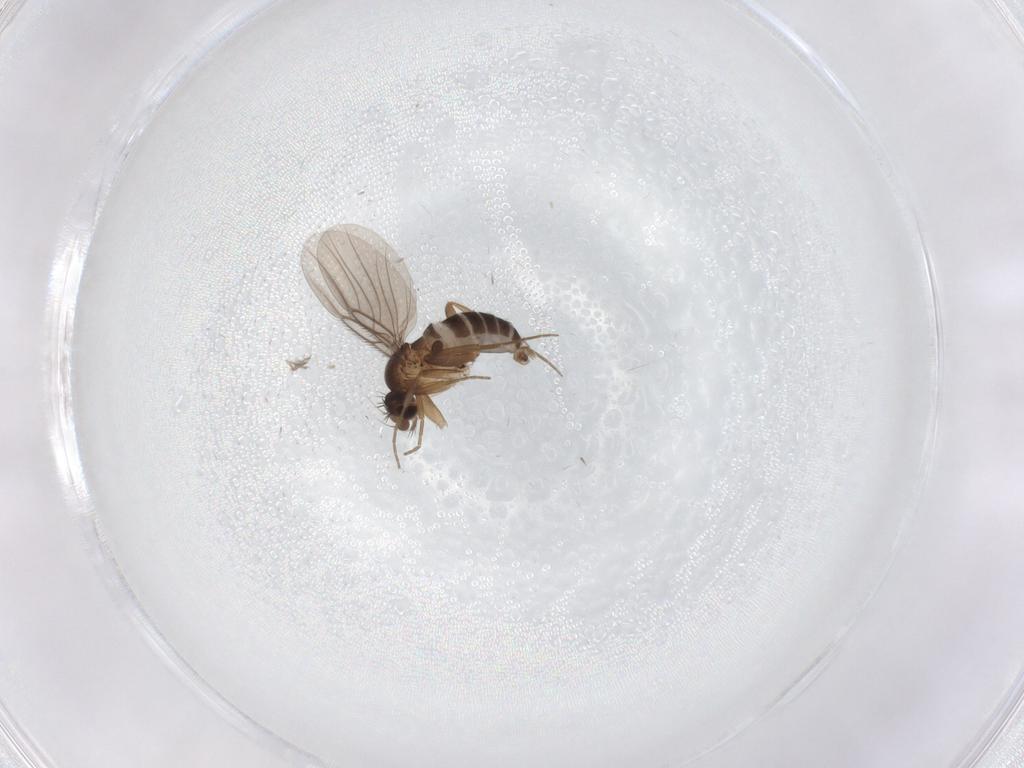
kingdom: Animalia
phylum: Arthropoda
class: Insecta
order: Diptera
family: Phoridae
